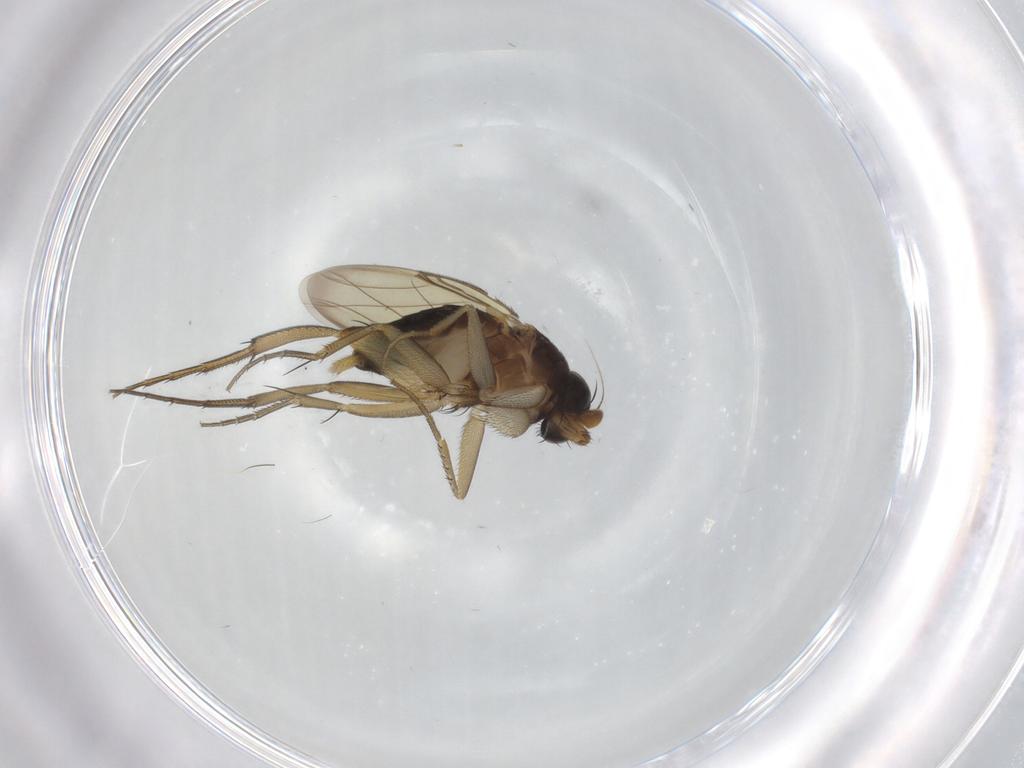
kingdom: Animalia
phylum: Arthropoda
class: Insecta
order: Diptera
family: Phoridae
